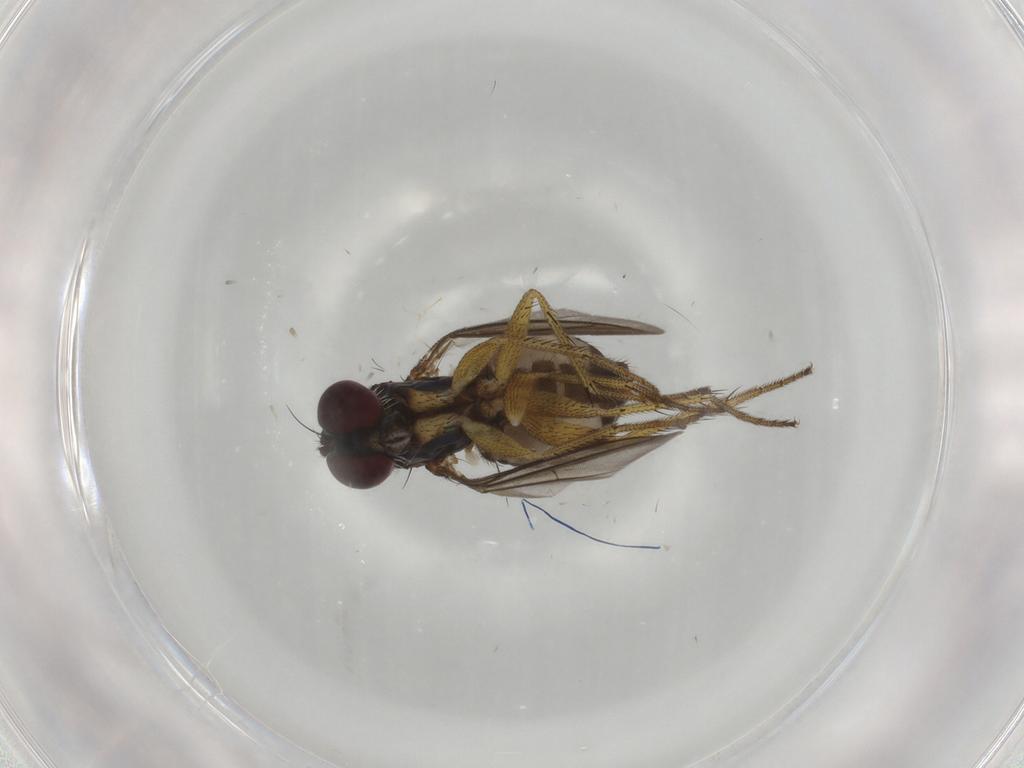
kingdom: Animalia
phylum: Arthropoda
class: Insecta
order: Diptera
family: Dolichopodidae
